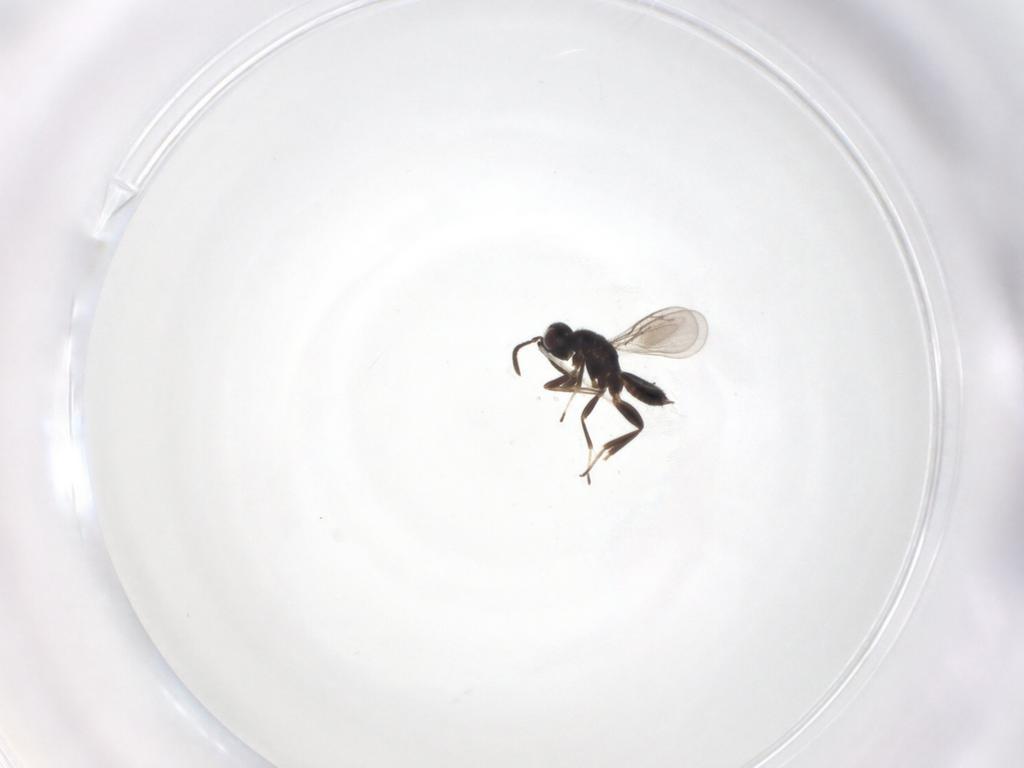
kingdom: Animalia
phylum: Arthropoda
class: Insecta
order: Hymenoptera
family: Eupelmidae
